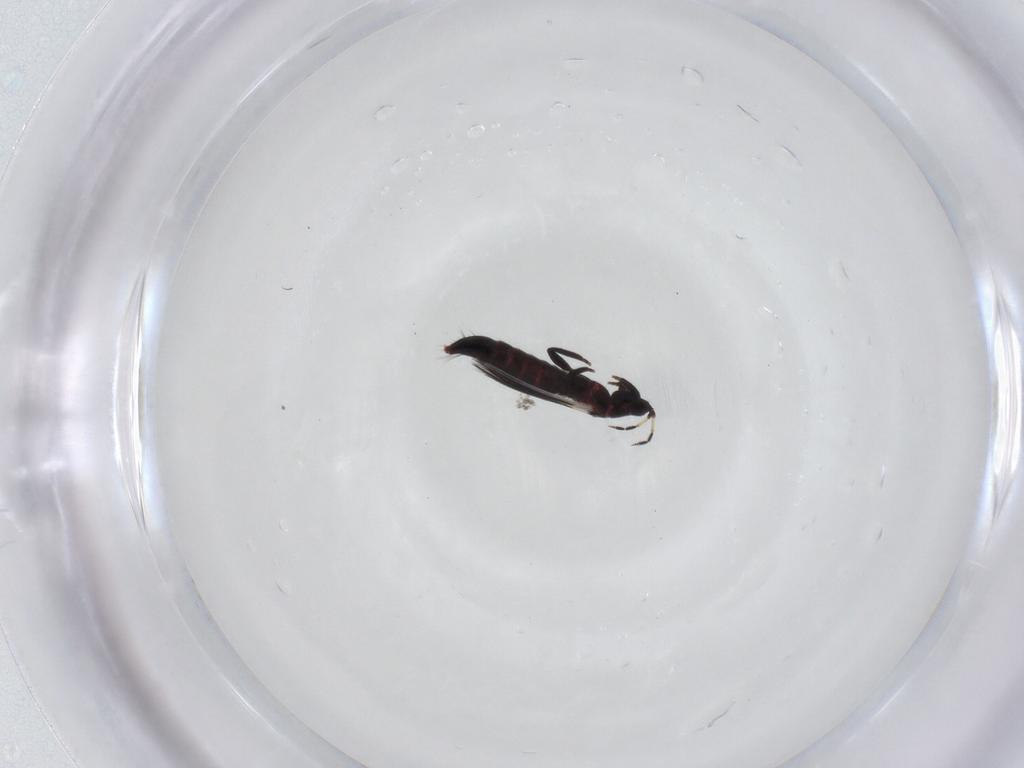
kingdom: Animalia
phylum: Arthropoda
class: Insecta
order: Thysanoptera
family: Aeolothripidae
